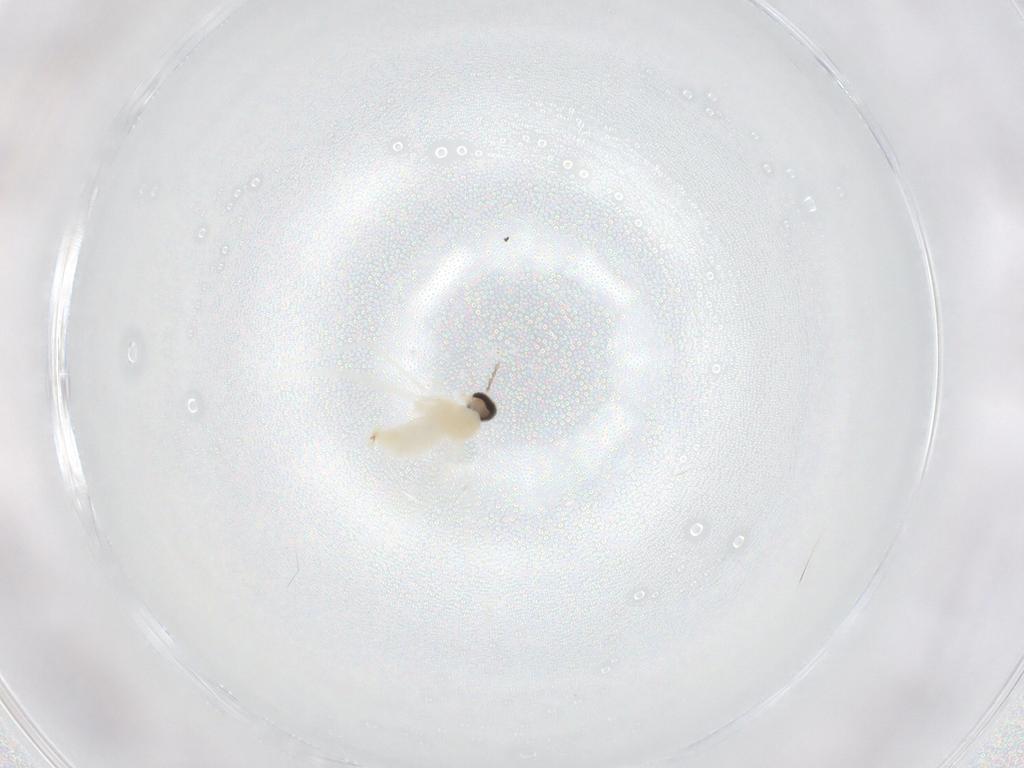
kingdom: Animalia
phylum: Arthropoda
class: Insecta
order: Diptera
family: Cecidomyiidae
